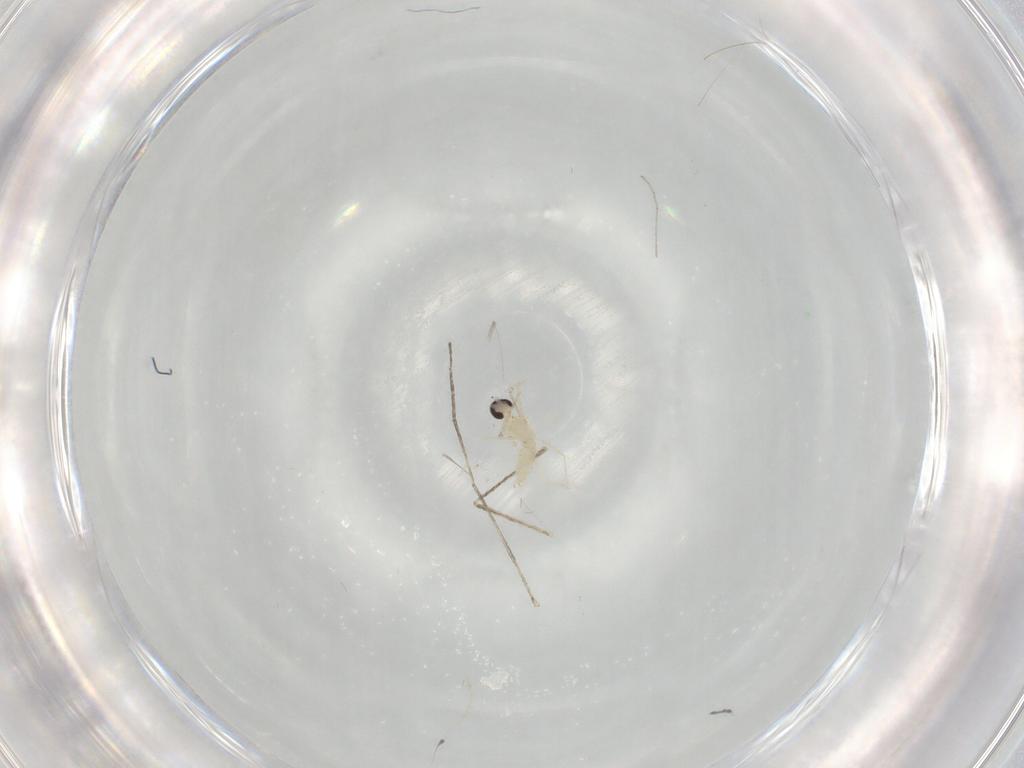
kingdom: Animalia
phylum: Arthropoda
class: Insecta
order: Diptera
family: Cecidomyiidae
